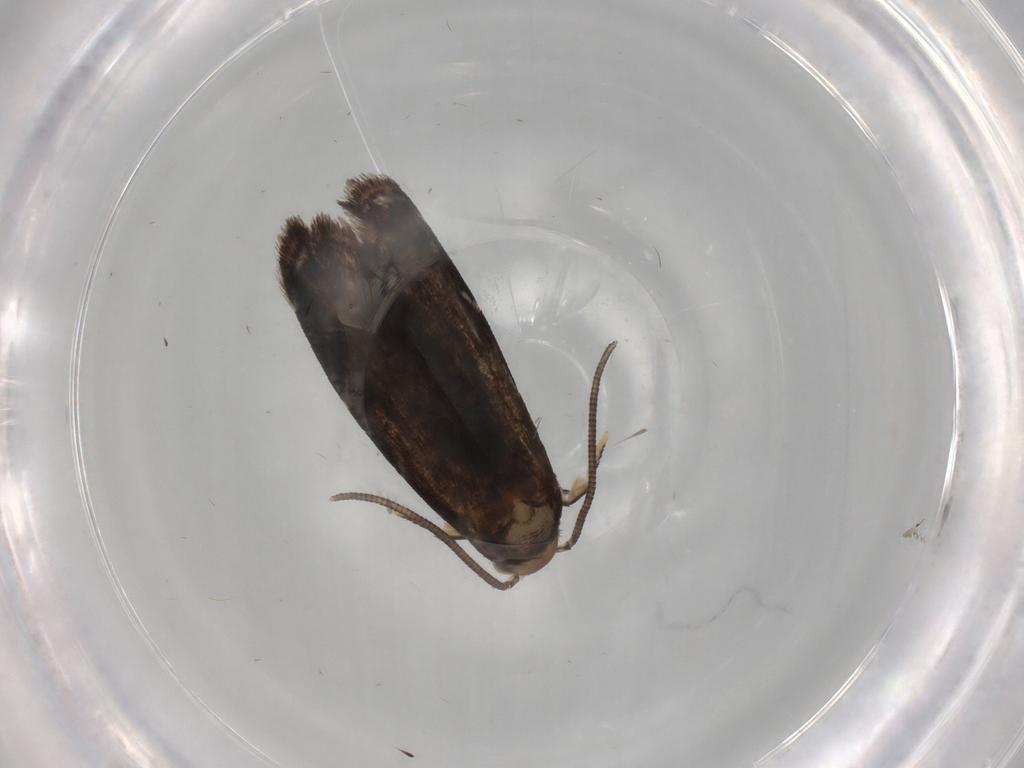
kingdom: Animalia
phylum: Arthropoda
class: Insecta
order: Lepidoptera
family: Dryadaulidae
